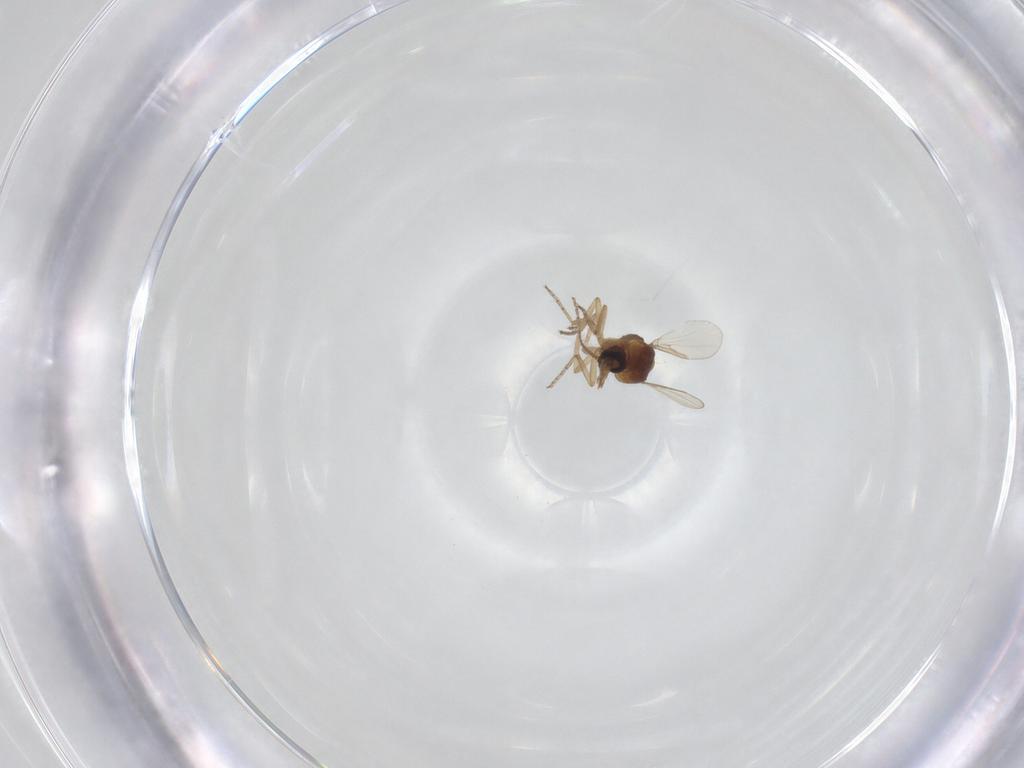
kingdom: Animalia
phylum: Arthropoda
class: Insecta
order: Diptera
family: Ceratopogonidae
